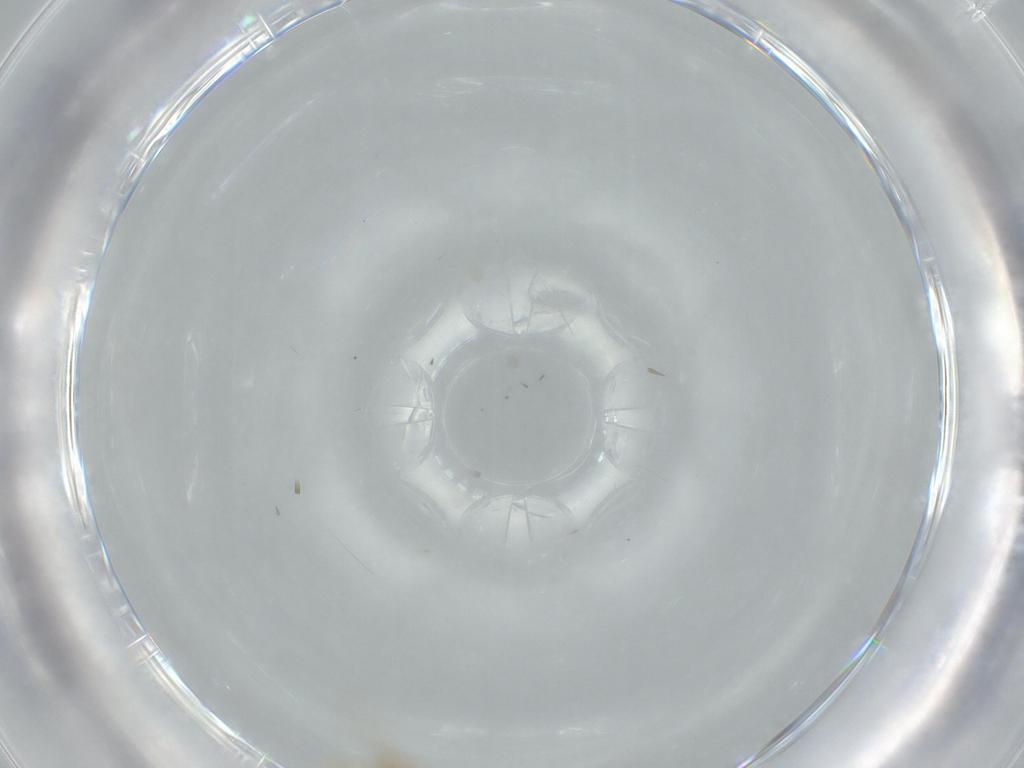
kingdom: Animalia
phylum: Arthropoda
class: Insecta
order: Diptera
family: Cecidomyiidae
